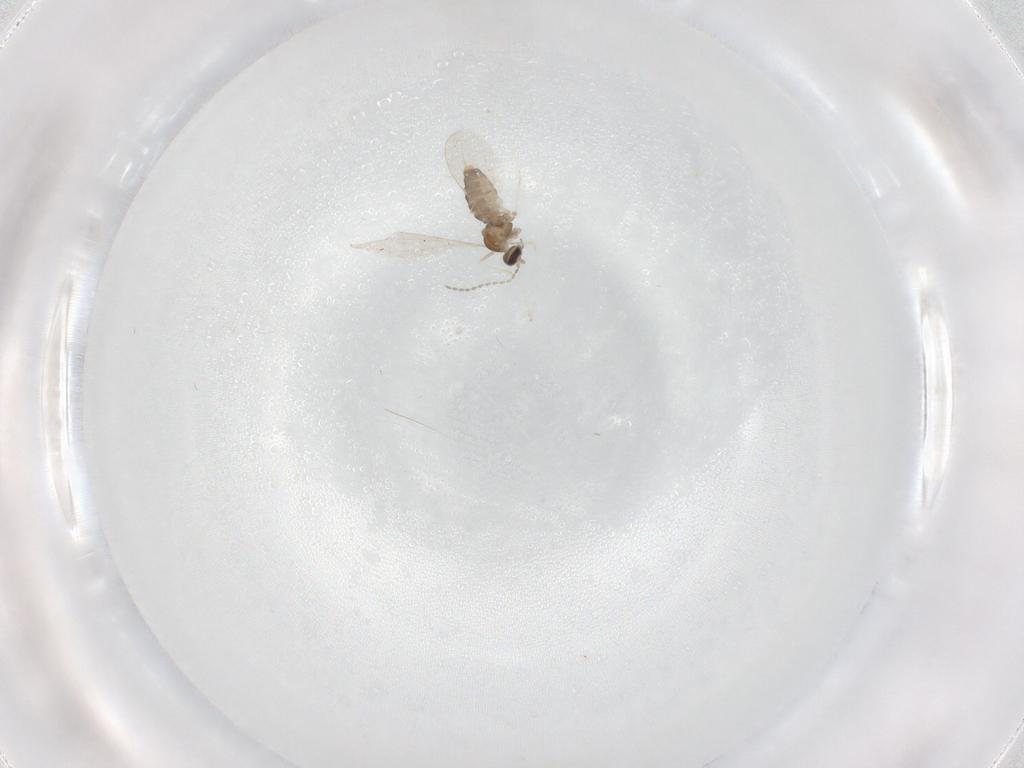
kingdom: Animalia
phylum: Arthropoda
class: Insecta
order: Diptera
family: Cecidomyiidae
